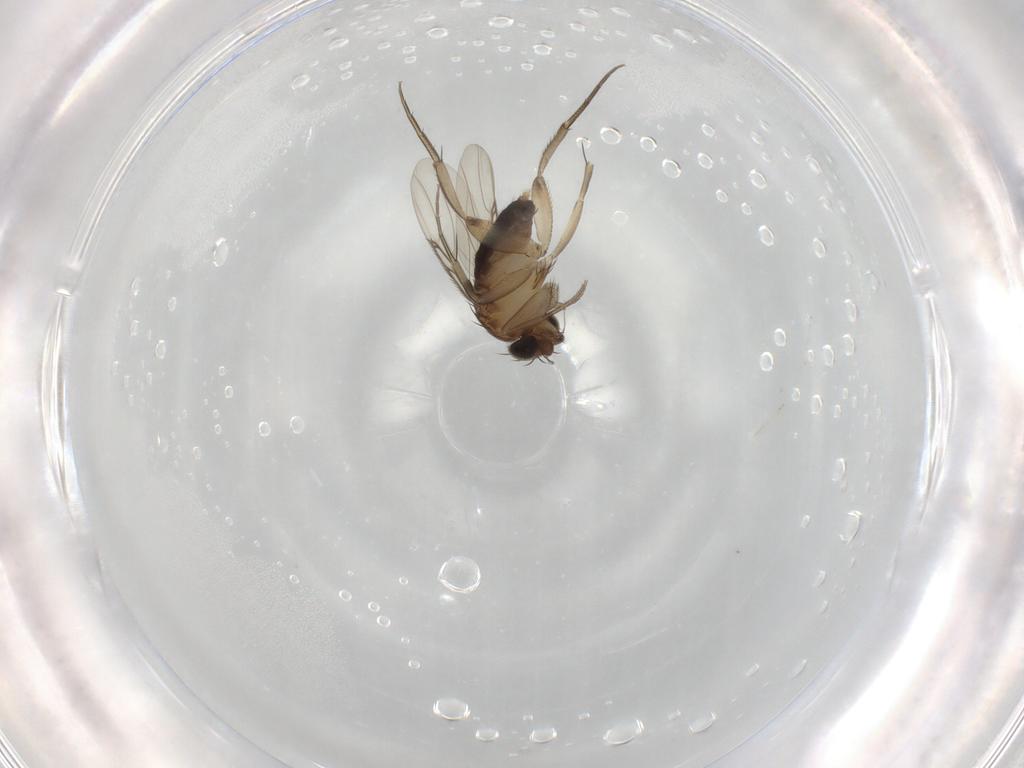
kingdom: Animalia
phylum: Arthropoda
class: Insecta
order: Diptera
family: Phoridae
